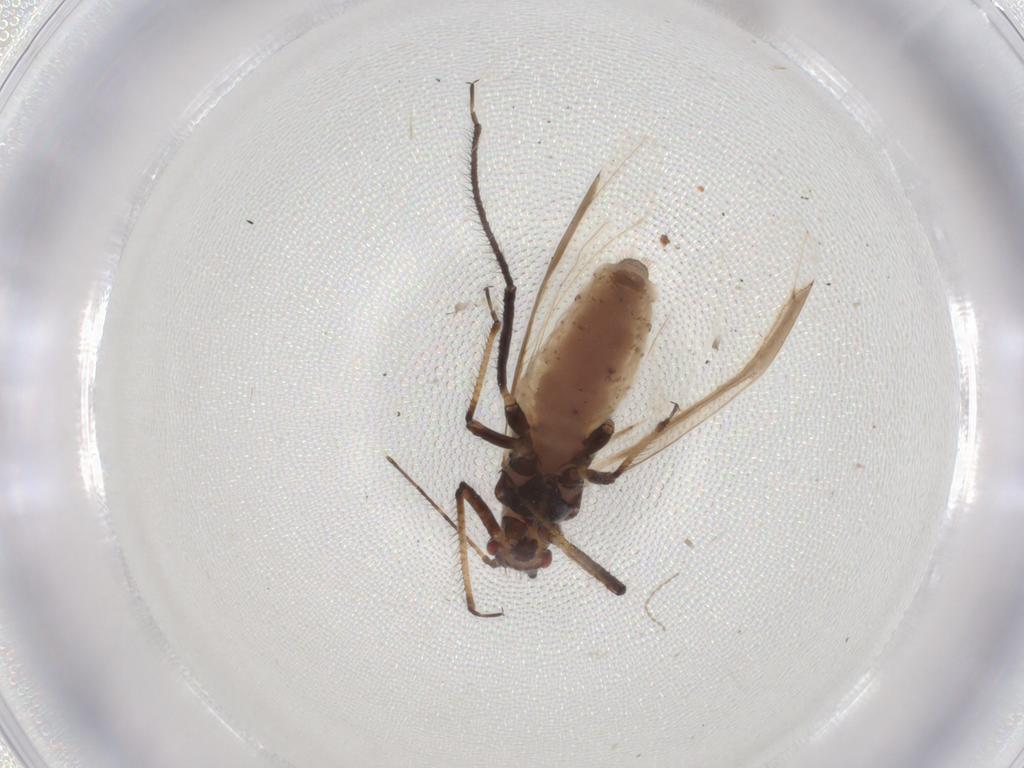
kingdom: Animalia
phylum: Arthropoda
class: Insecta
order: Hemiptera
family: Lachnidae
